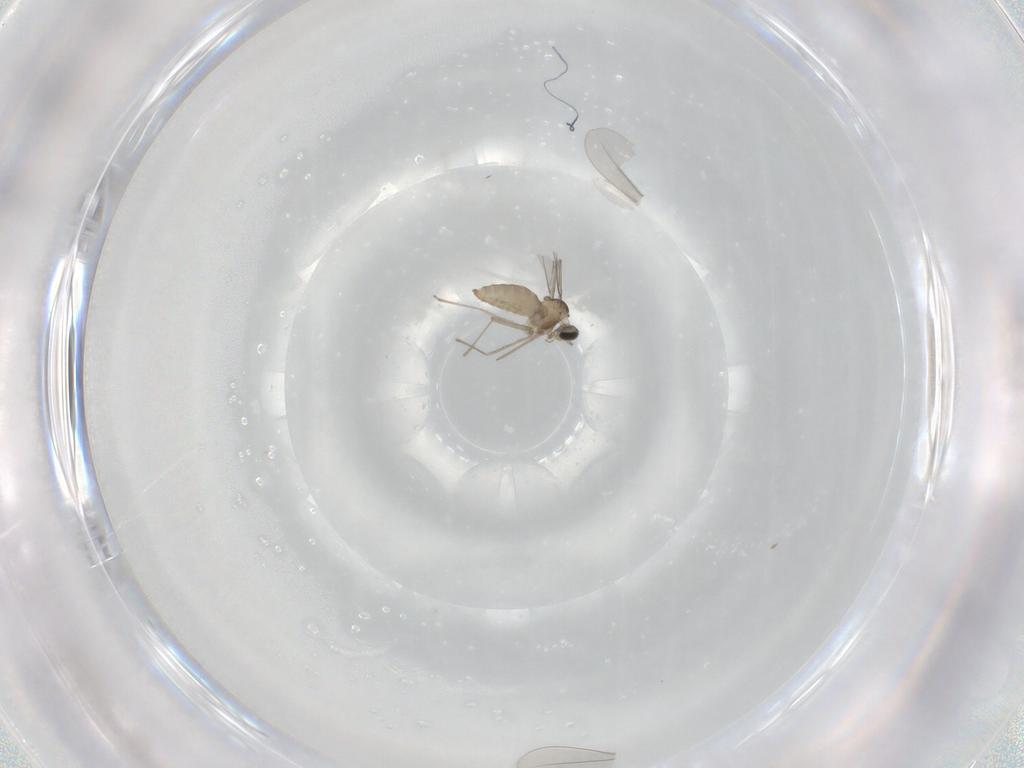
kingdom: Animalia
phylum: Arthropoda
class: Insecta
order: Diptera
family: Cecidomyiidae
